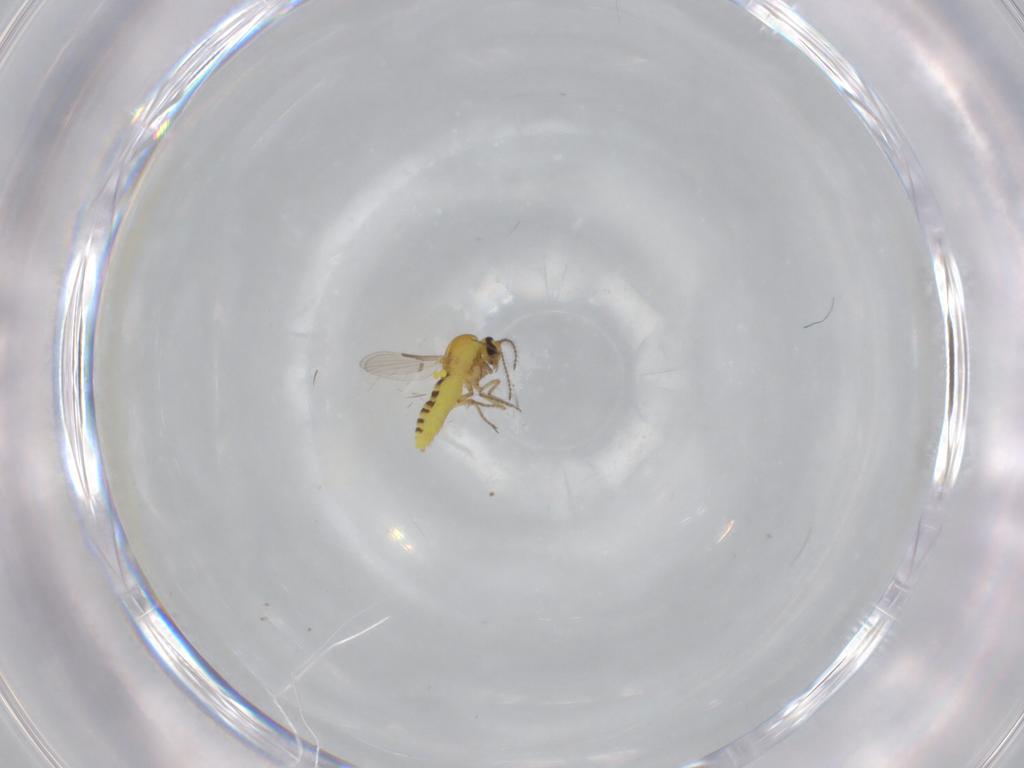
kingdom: Animalia
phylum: Arthropoda
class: Insecta
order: Diptera
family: Ceratopogonidae
